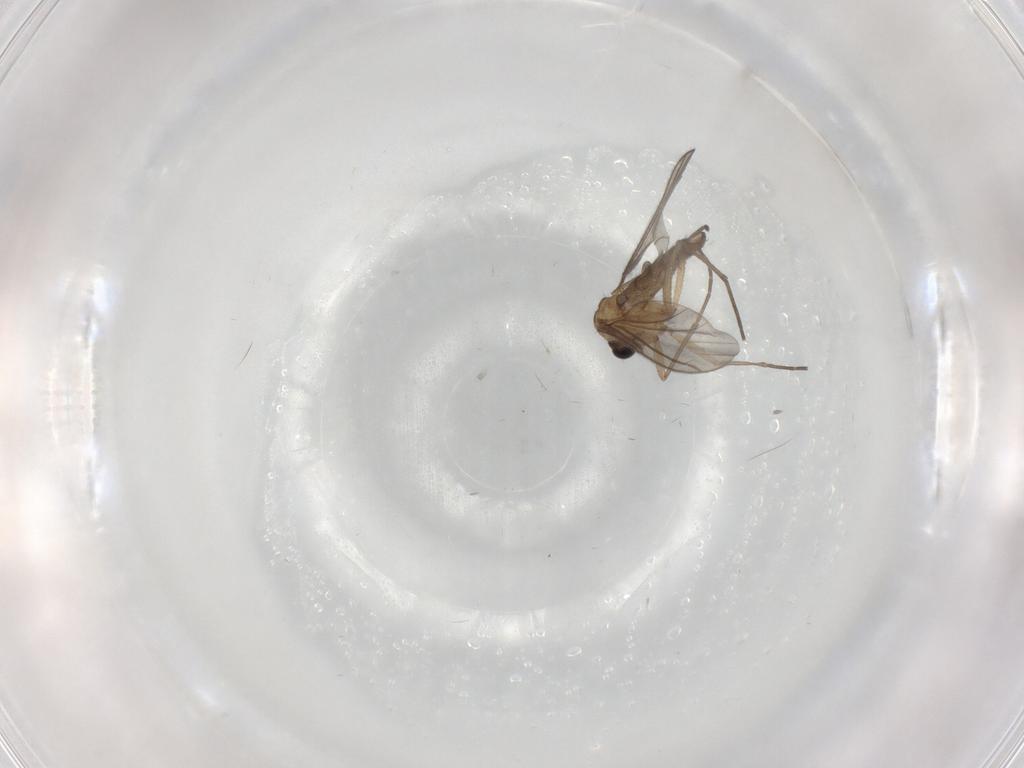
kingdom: Animalia
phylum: Arthropoda
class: Insecta
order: Diptera
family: Sciaridae
